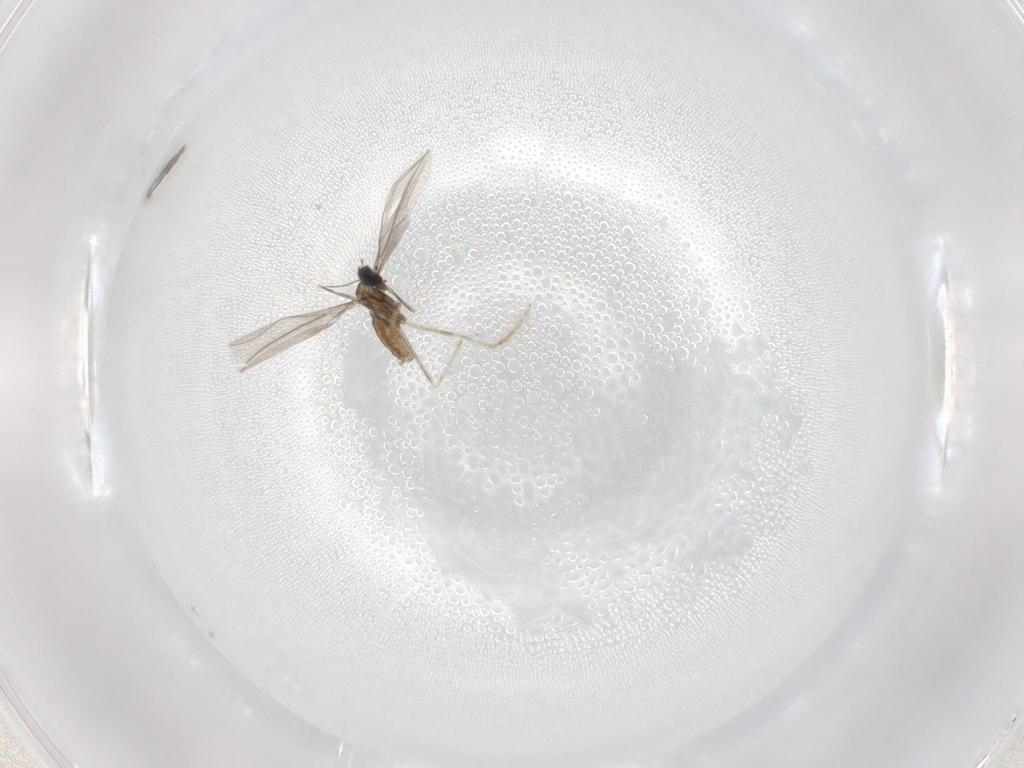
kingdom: Animalia
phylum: Arthropoda
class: Insecta
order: Diptera
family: Cecidomyiidae
